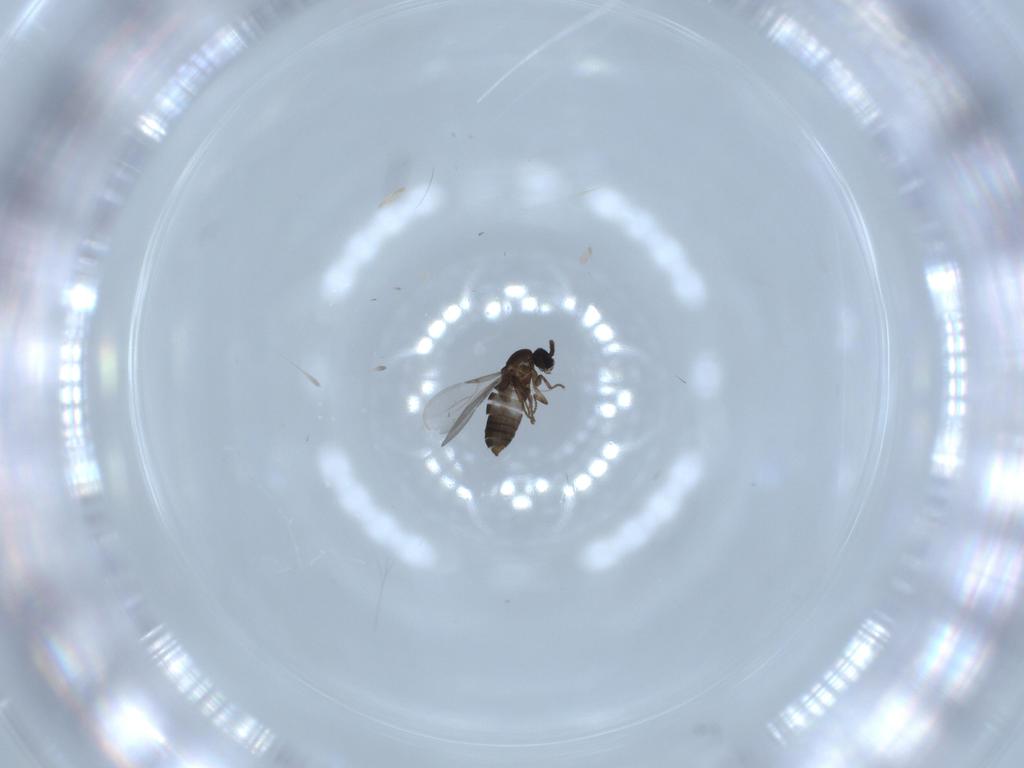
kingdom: Animalia
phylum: Arthropoda
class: Insecta
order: Diptera
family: Scatopsidae
